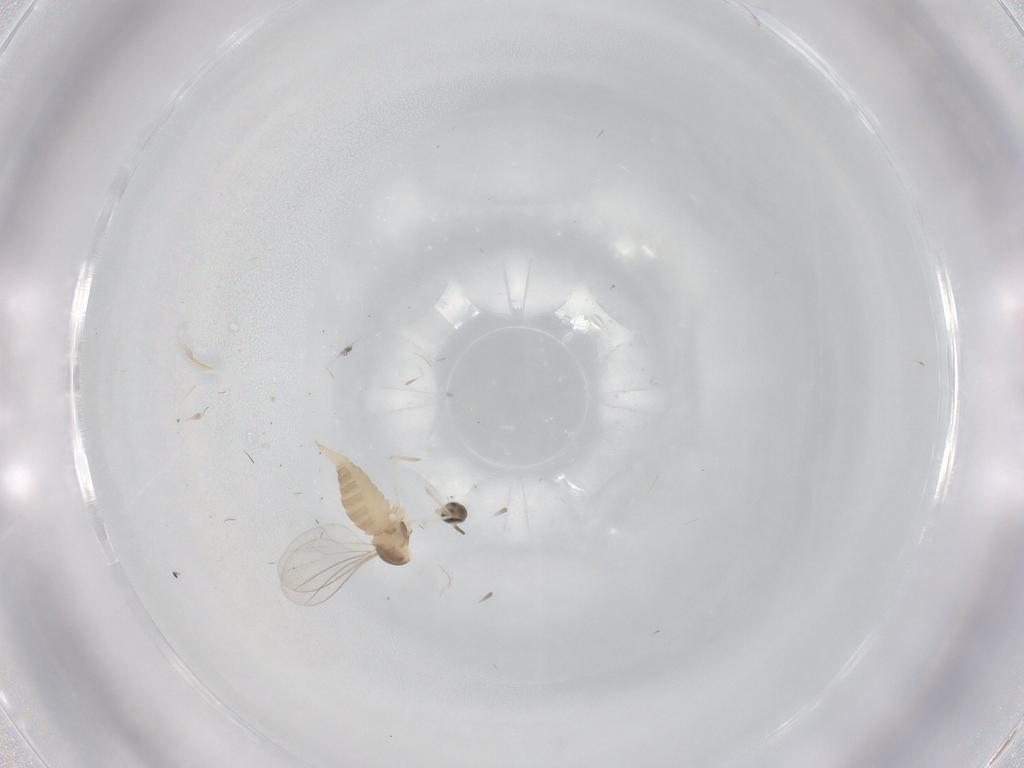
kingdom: Animalia
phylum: Arthropoda
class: Insecta
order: Diptera
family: Cecidomyiidae
